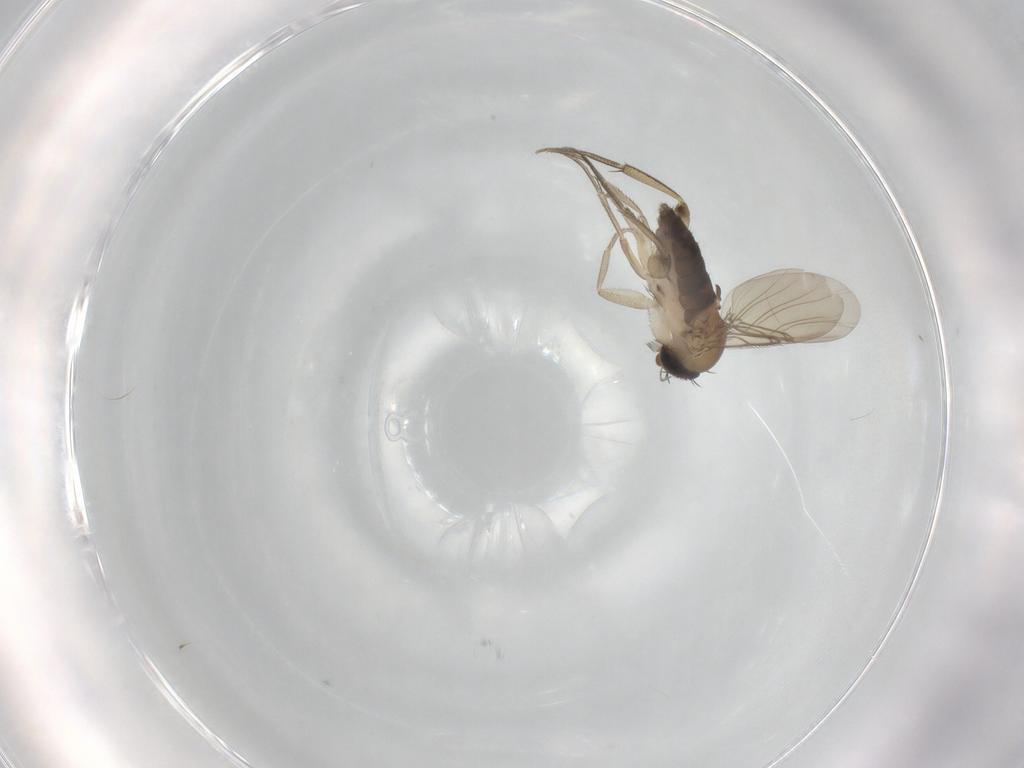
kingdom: Animalia
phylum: Arthropoda
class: Insecta
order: Diptera
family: Phoridae
